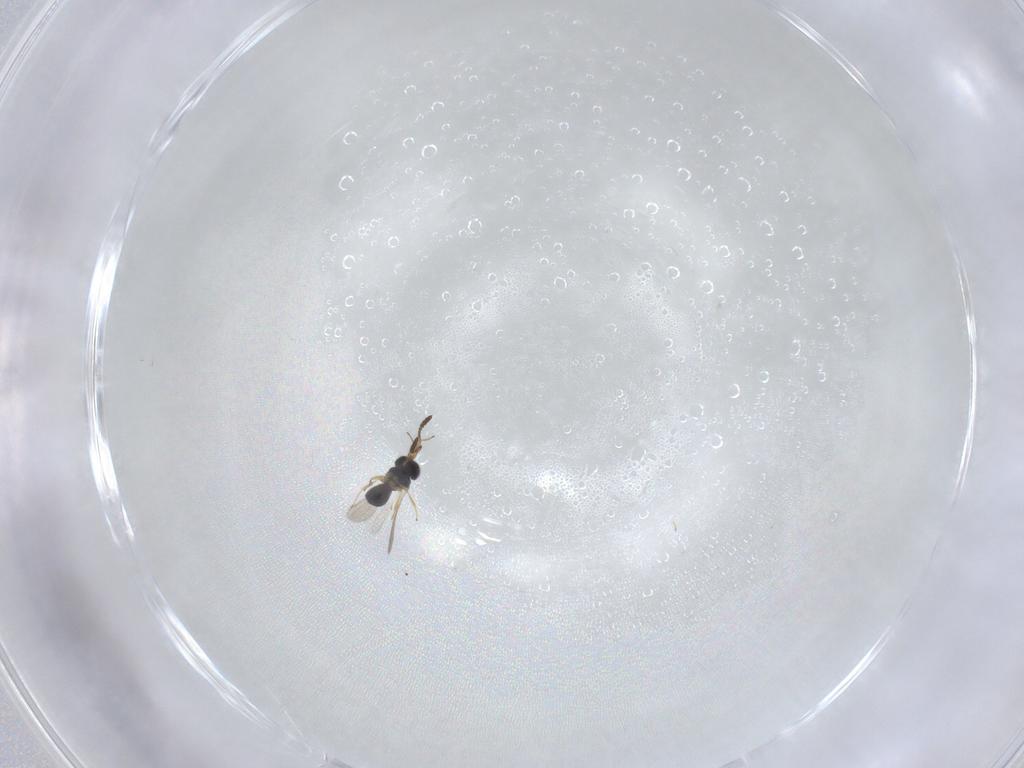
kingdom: Animalia
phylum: Arthropoda
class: Insecta
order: Hymenoptera
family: Scelionidae
